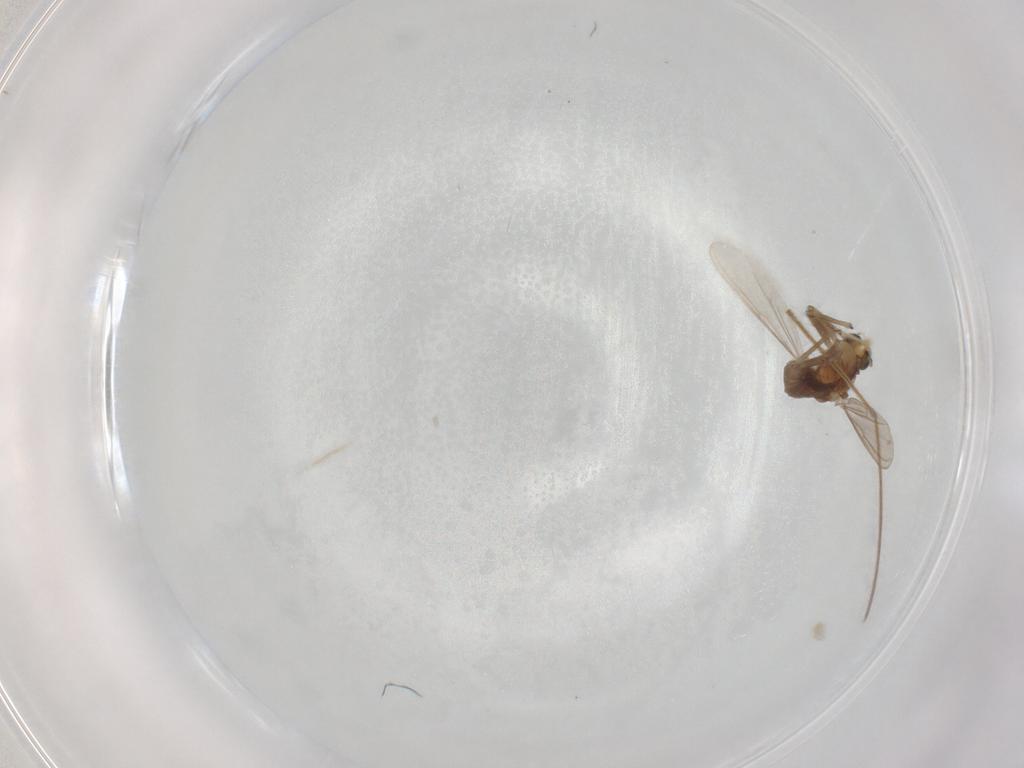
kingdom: Animalia
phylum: Arthropoda
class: Insecta
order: Diptera
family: Chironomidae
